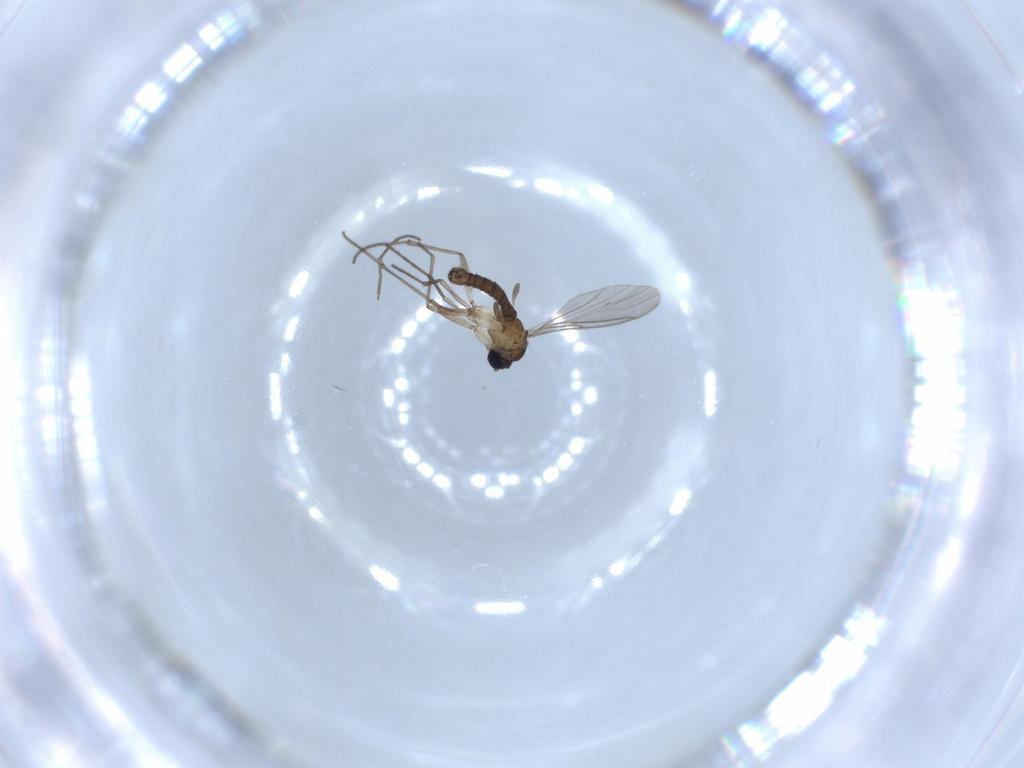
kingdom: Animalia
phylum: Arthropoda
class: Insecta
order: Diptera
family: Sciaridae
